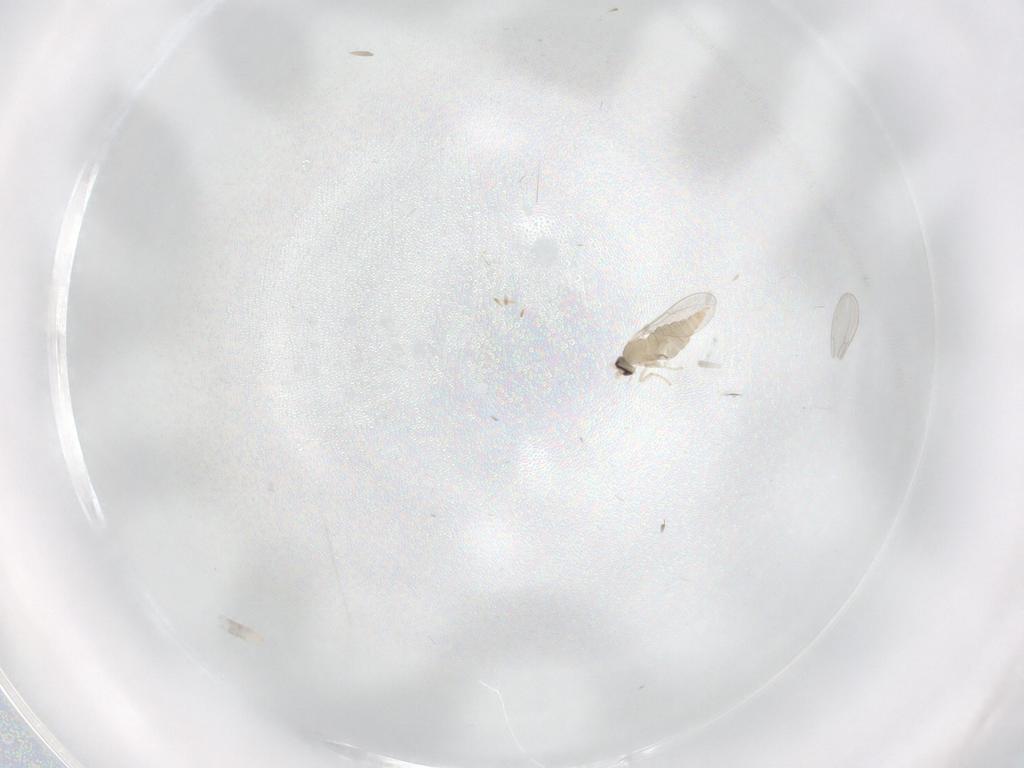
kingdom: Animalia
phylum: Arthropoda
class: Insecta
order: Diptera
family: Cecidomyiidae
